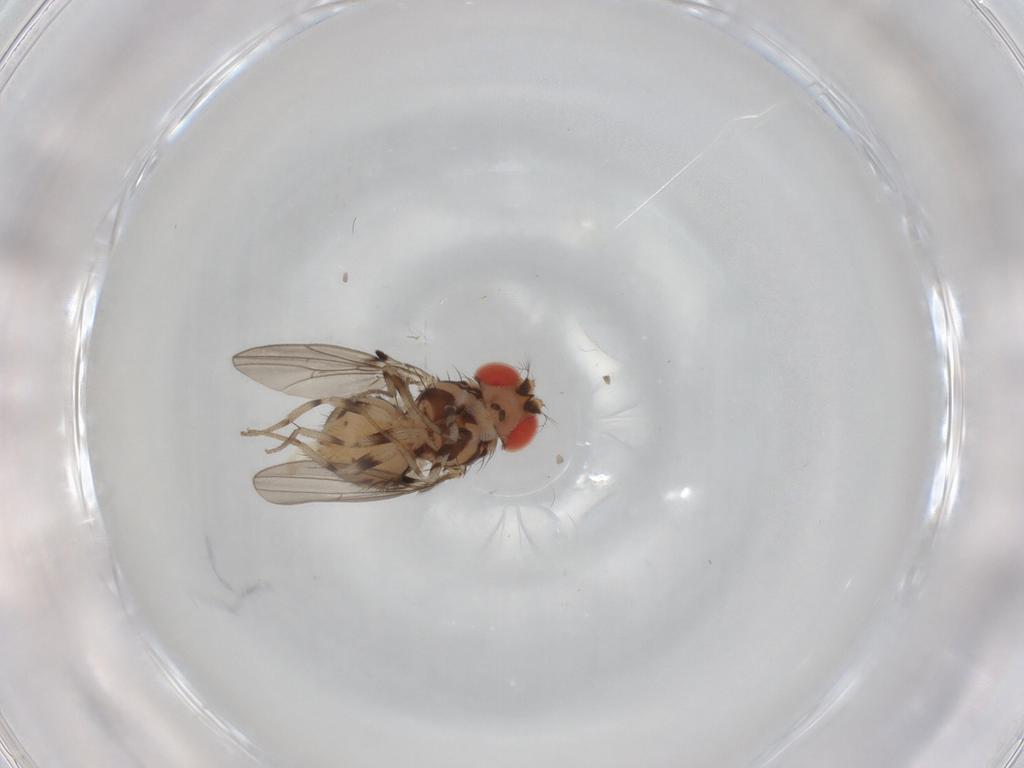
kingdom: Animalia
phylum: Arthropoda
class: Insecta
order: Diptera
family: Drosophilidae
